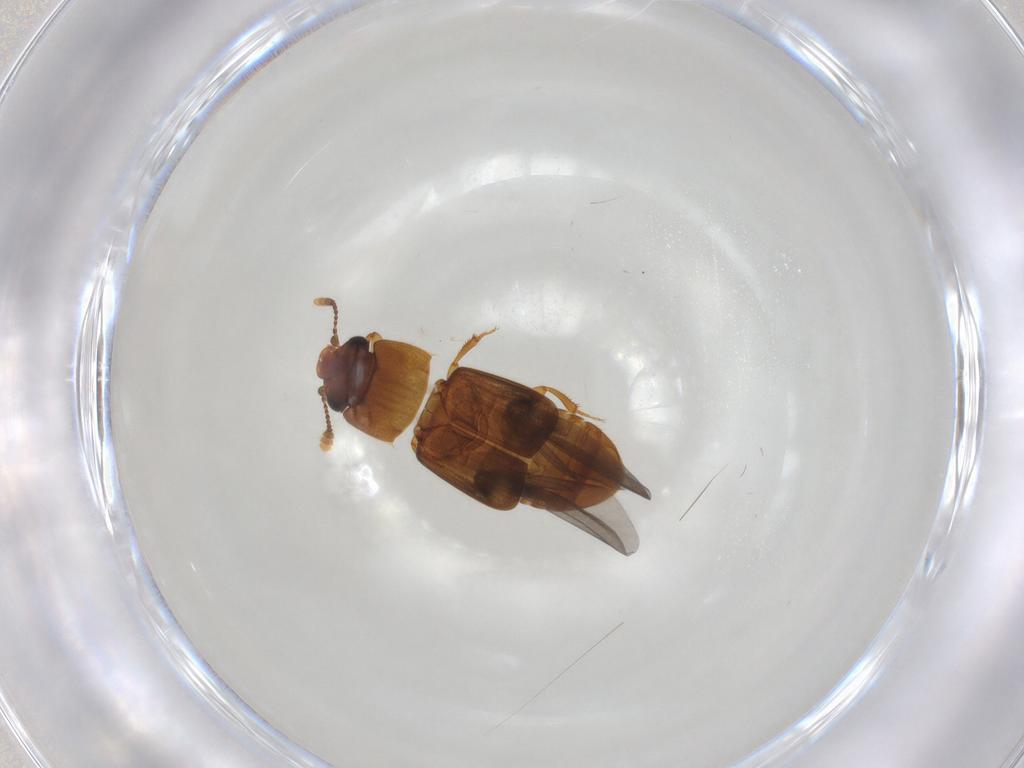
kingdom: Animalia
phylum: Arthropoda
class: Insecta
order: Coleoptera
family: Nitidulidae
